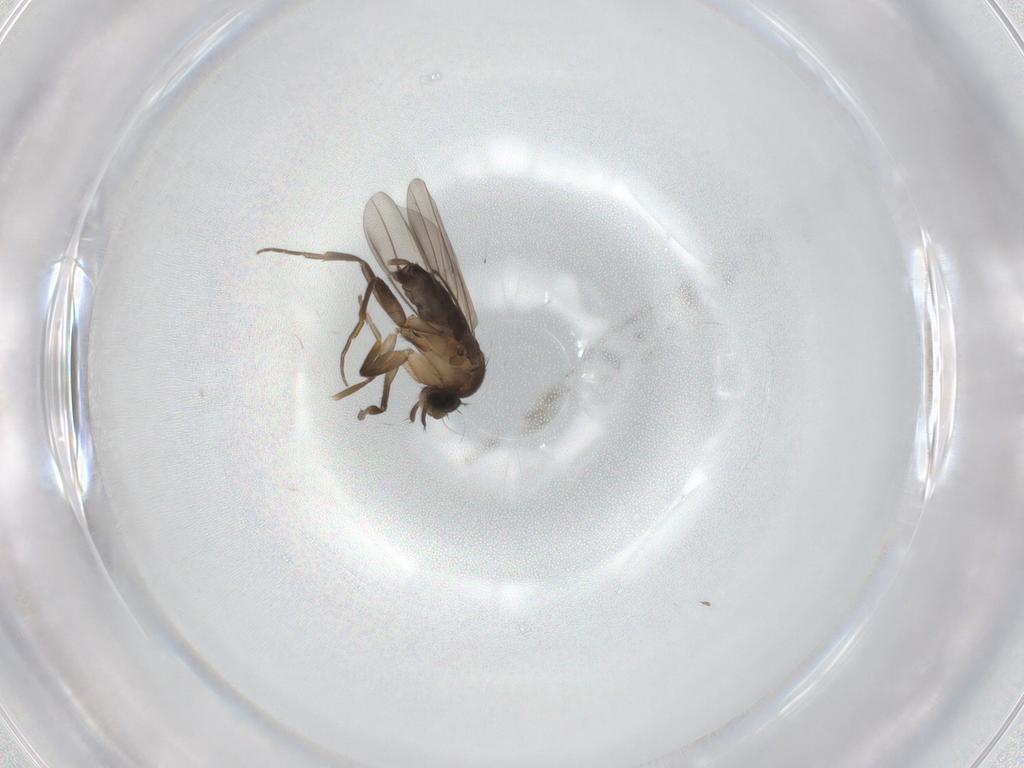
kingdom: Animalia
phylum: Arthropoda
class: Insecta
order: Diptera
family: Phoridae
